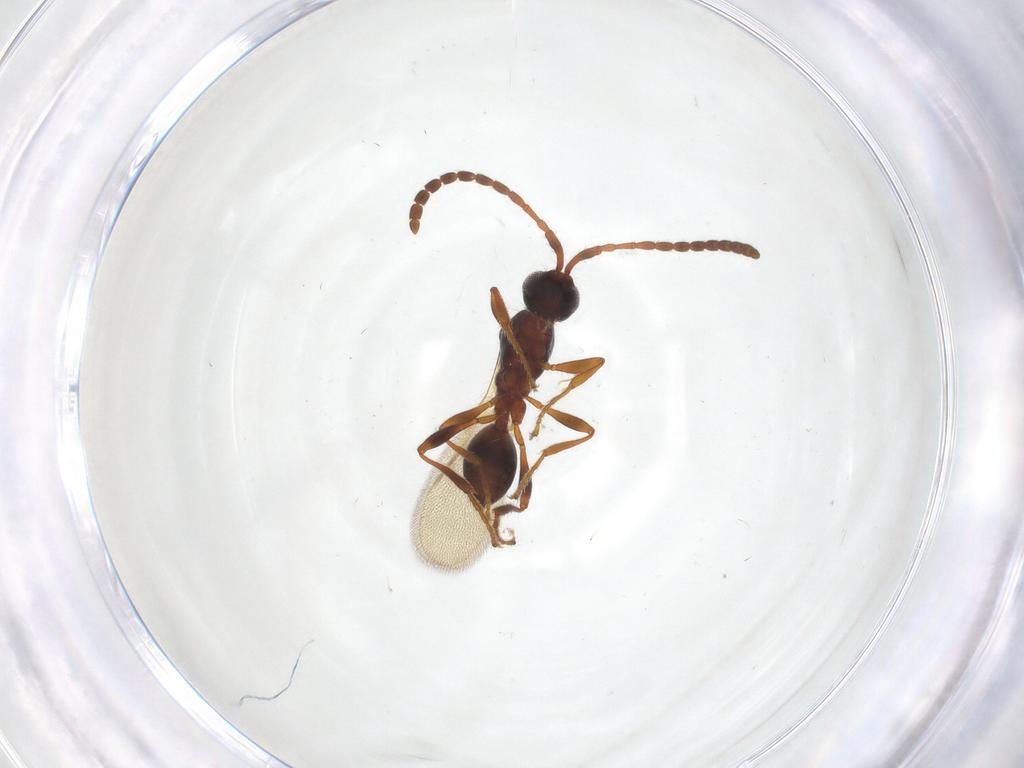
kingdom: Animalia
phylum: Arthropoda
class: Insecta
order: Hymenoptera
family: Diapriidae
